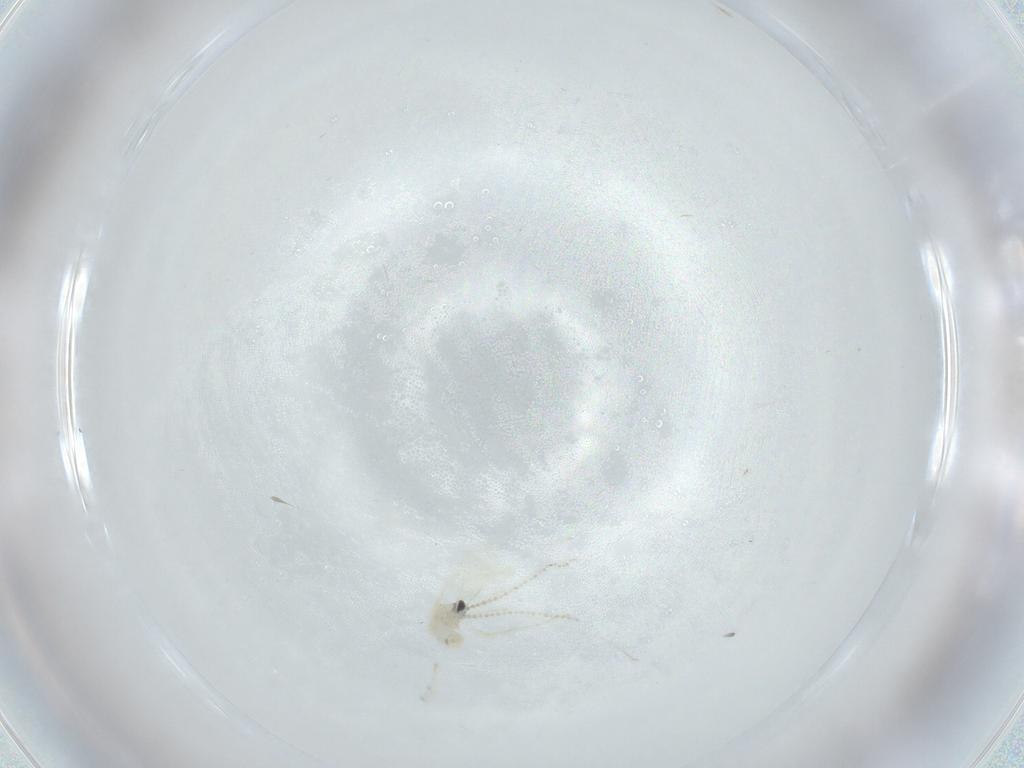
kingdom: Animalia
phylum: Arthropoda
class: Insecta
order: Diptera
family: Cecidomyiidae
